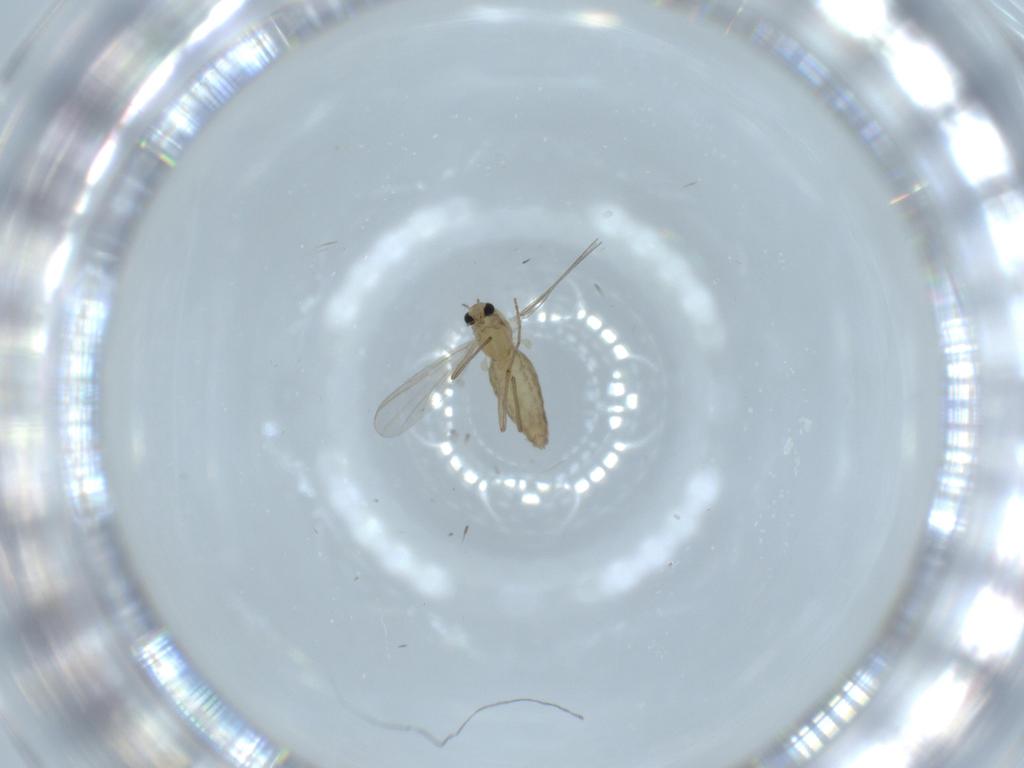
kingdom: Animalia
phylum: Arthropoda
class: Insecta
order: Diptera
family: Chironomidae
